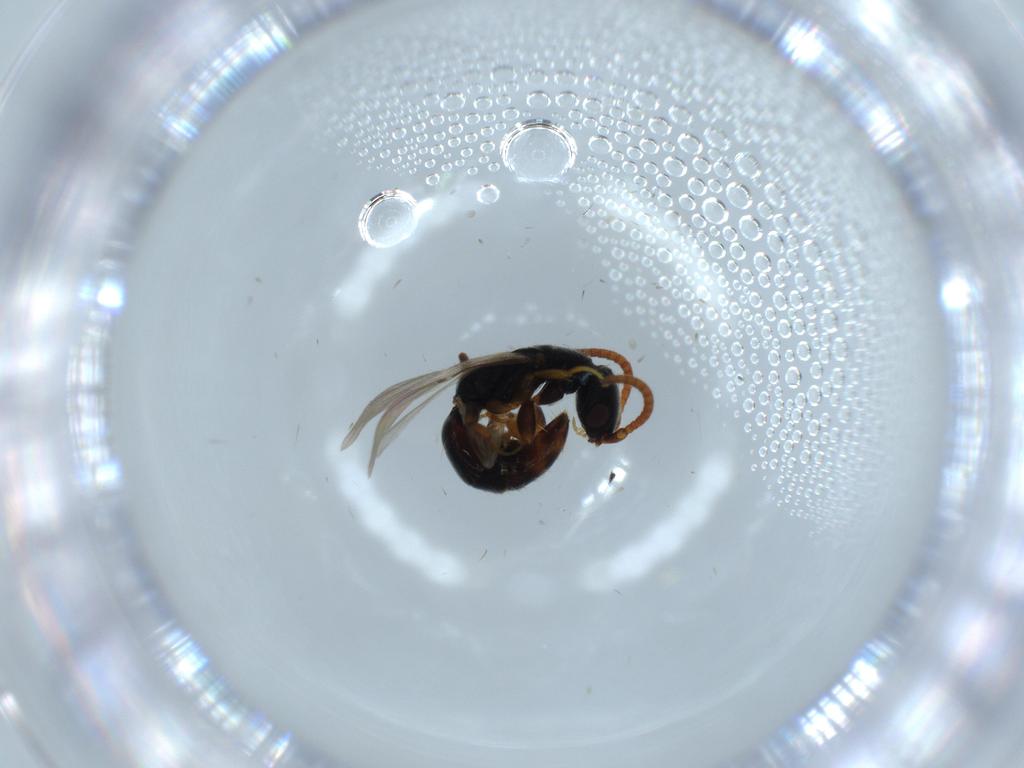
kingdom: Animalia
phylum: Arthropoda
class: Insecta
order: Hymenoptera
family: Bethylidae
